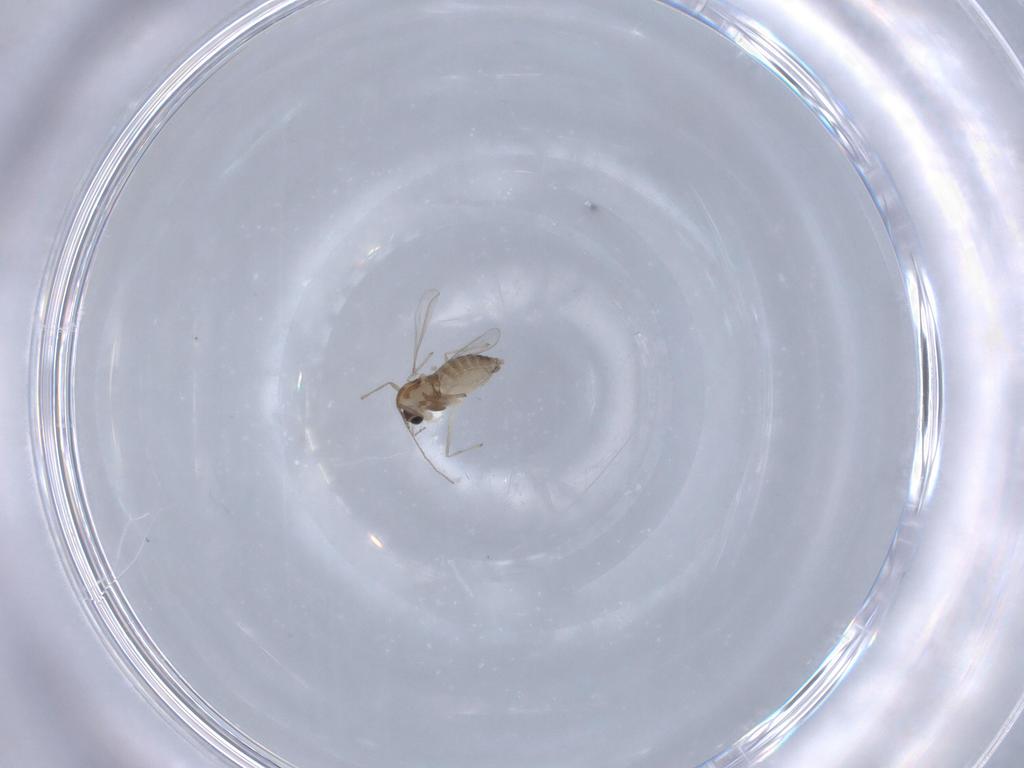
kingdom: Animalia
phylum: Arthropoda
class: Insecta
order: Diptera
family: Chironomidae
